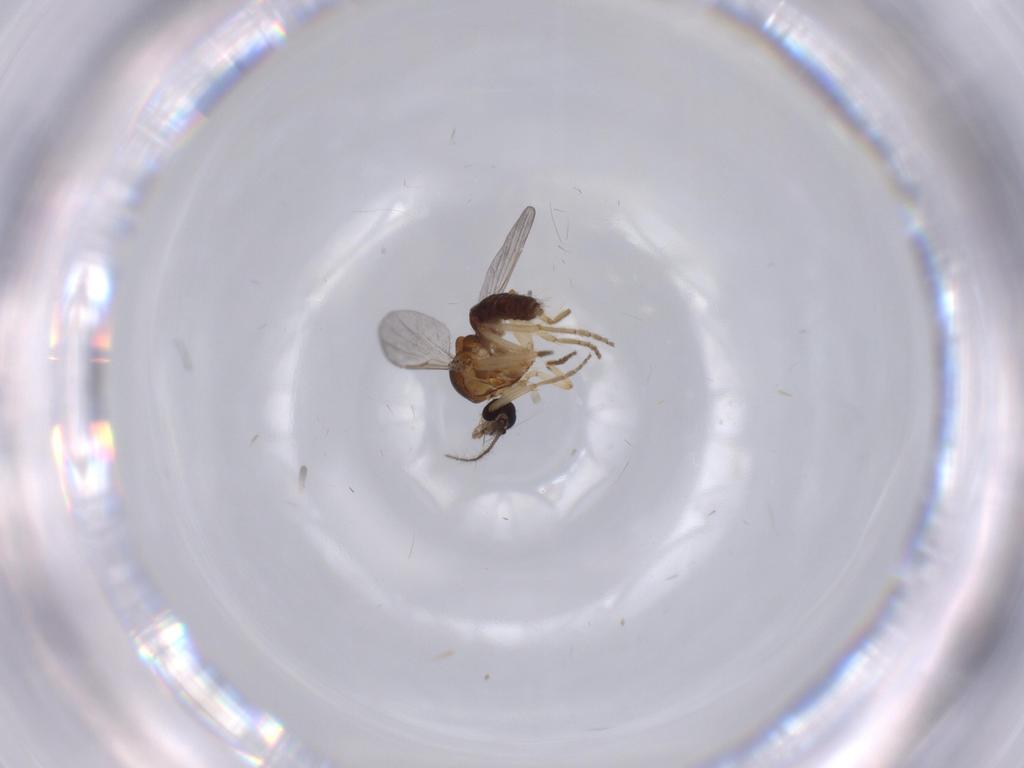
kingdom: Animalia
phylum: Arthropoda
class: Insecta
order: Diptera
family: Ceratopogonidae
